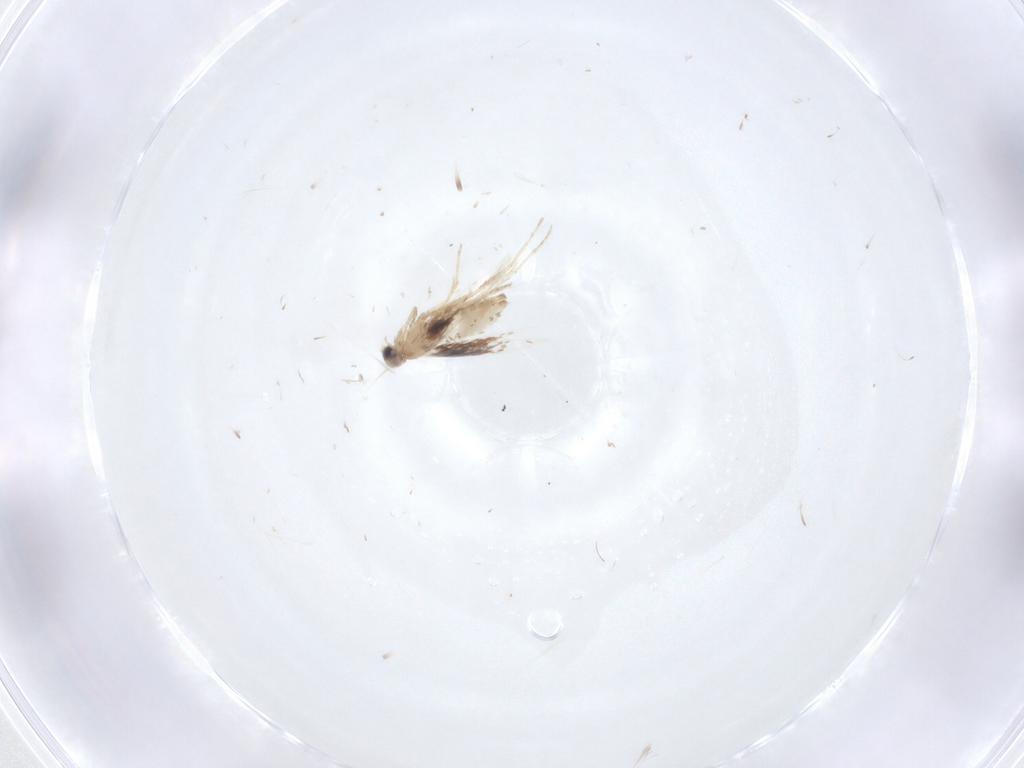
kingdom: Animalia
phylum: Arthropoda
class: Insecta
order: Lepidoptera
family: Nepticulidae
